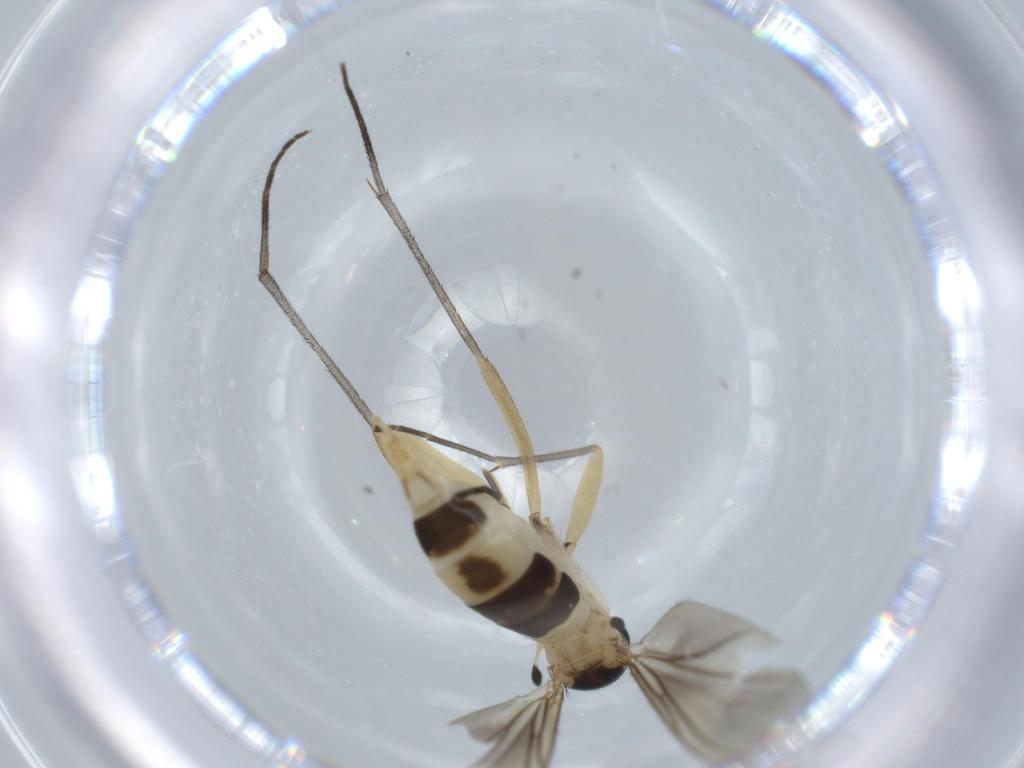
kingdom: Animalia
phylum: Arthropoda
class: Insecta
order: Diptera
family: Sciaridae
